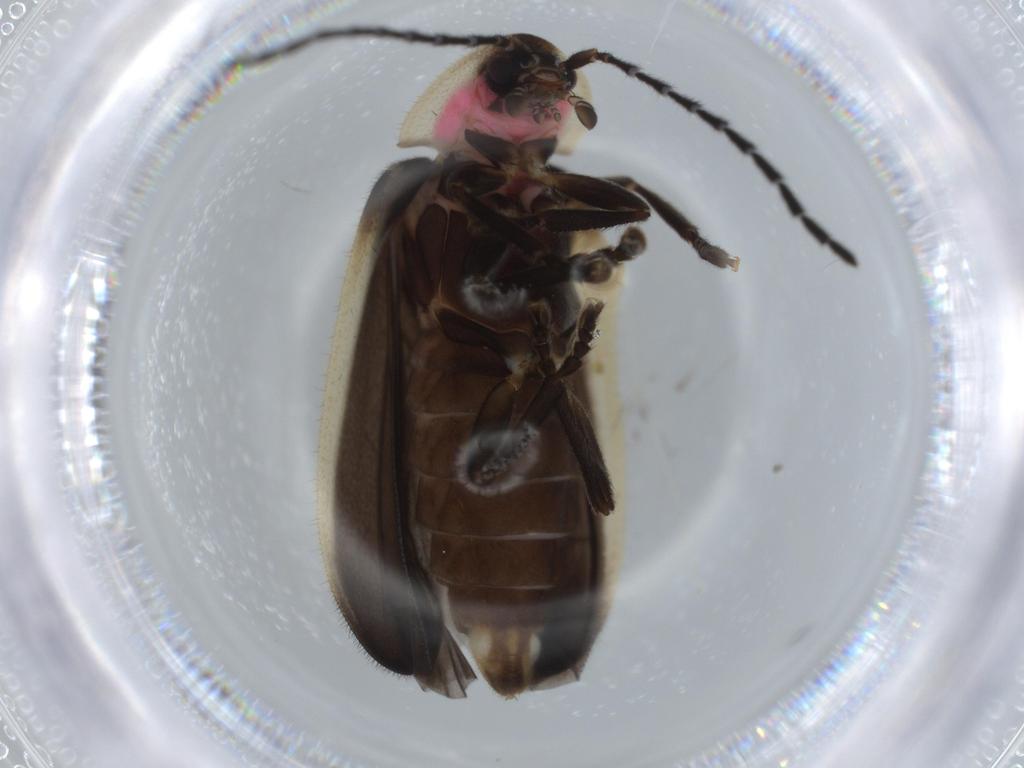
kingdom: Animalia
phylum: Arthropoda
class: Insecta
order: Coleoptera
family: Lampyridae
